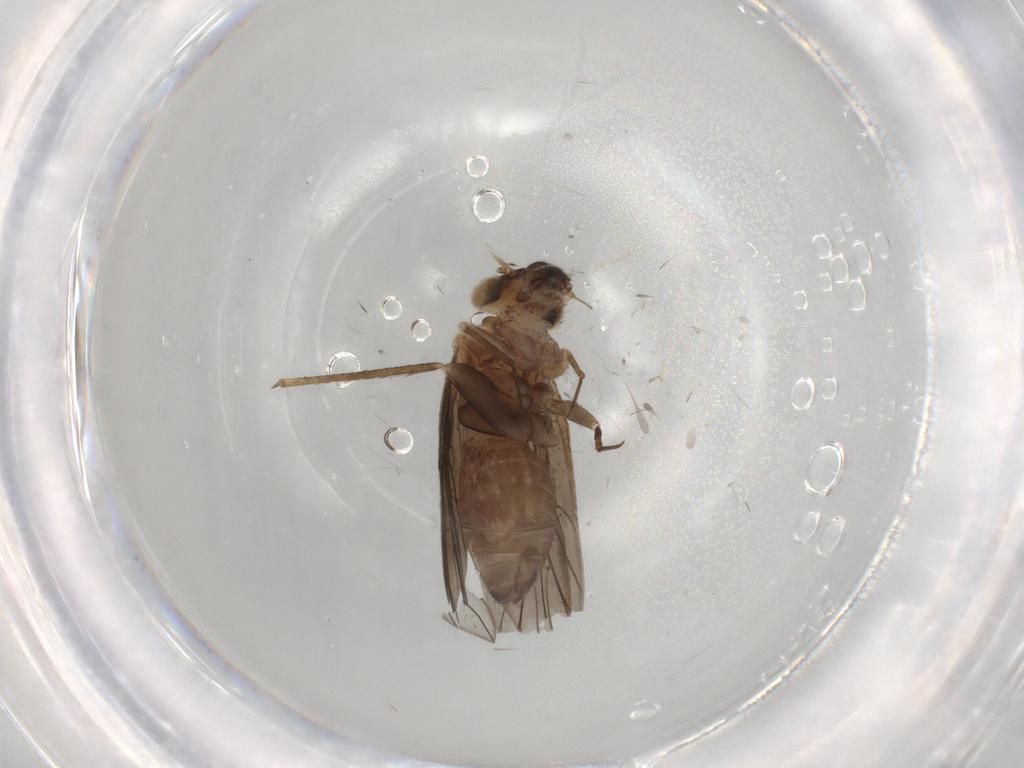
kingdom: Animalia
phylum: Arthropoda
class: Insecta
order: Psocodea
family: Lepidopsocidae
